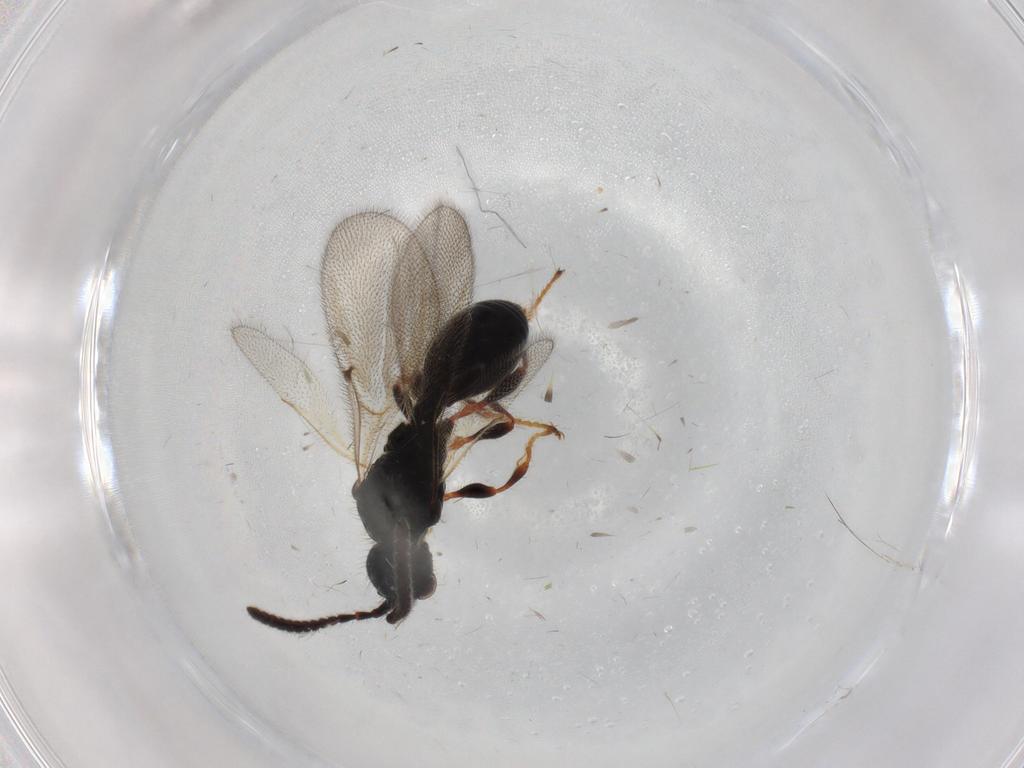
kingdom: Animalia
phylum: Arthropoda
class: Insecta
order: Hymenoptera
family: Diapriidae
